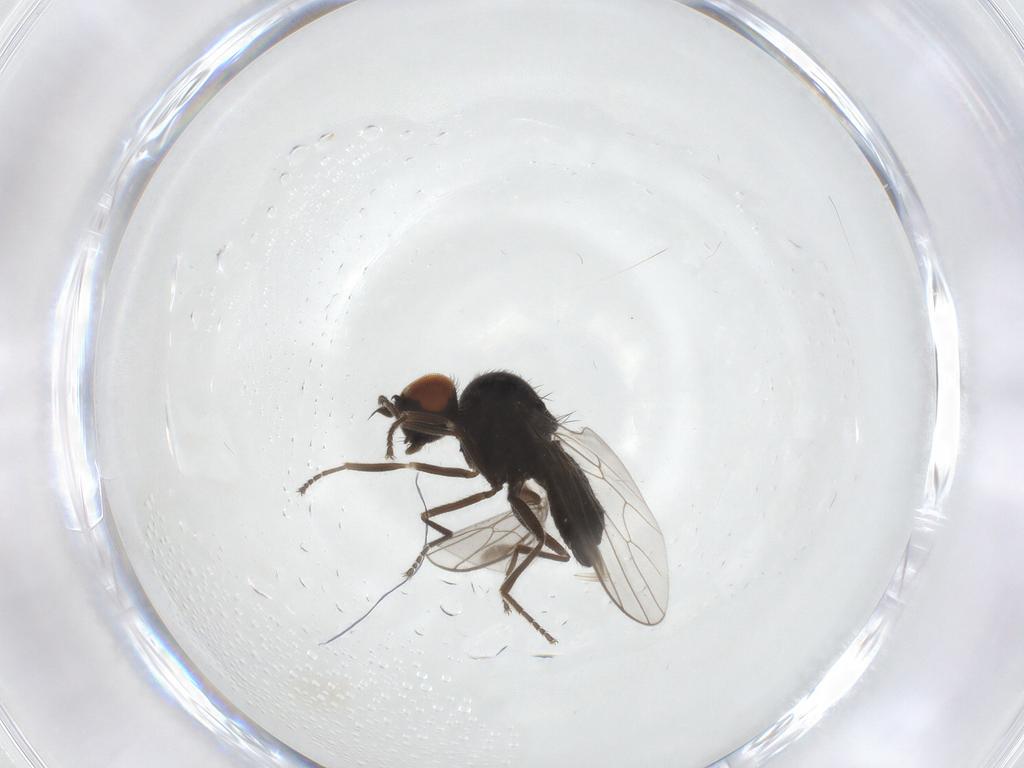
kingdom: Animalia
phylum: Arthropoda
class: Insecta
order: Diptera
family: Hybotidae
